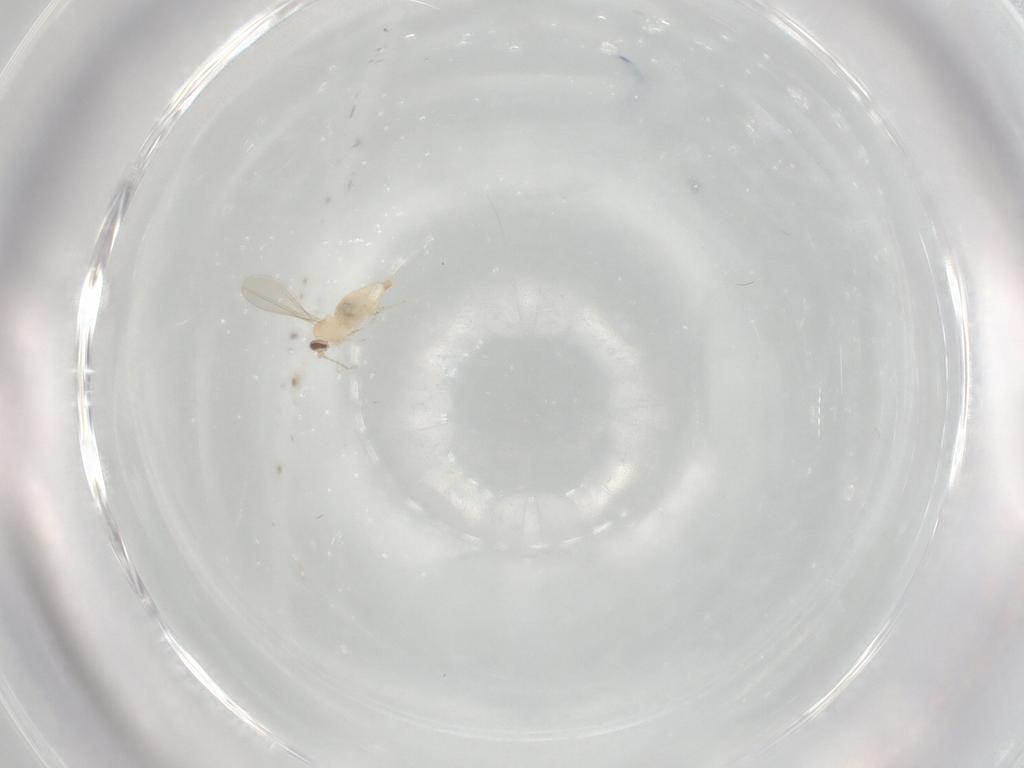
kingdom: Animalia
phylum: Arthropoda
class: Insecta
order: Diptera
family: Cecidomyiidae
